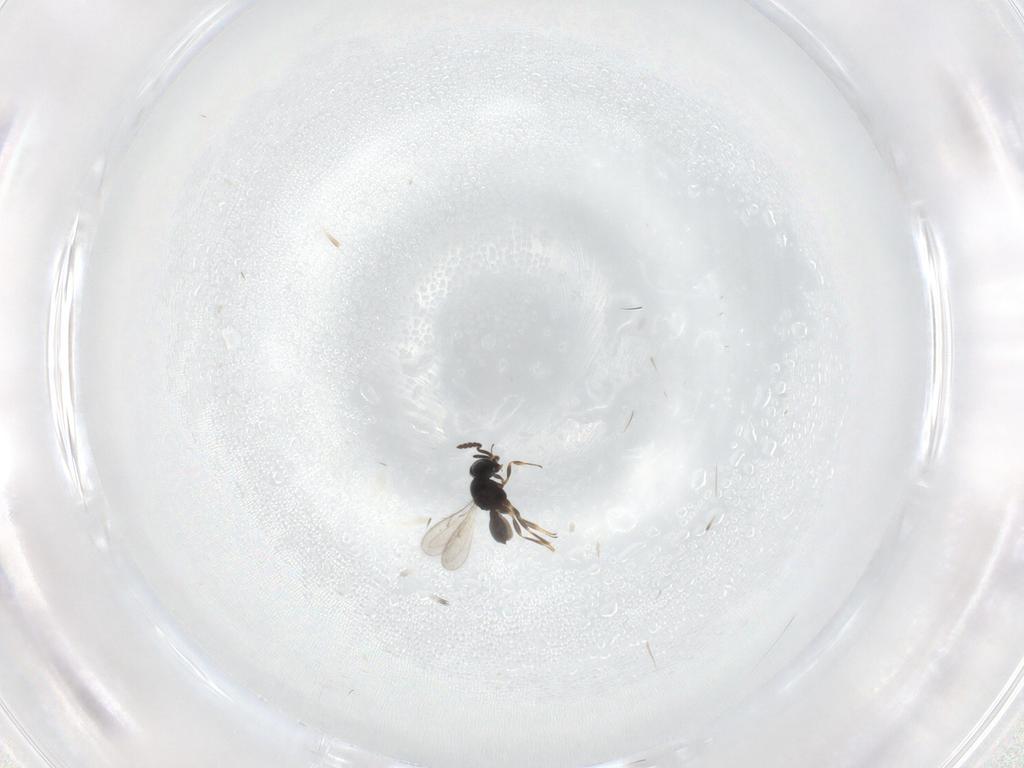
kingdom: Animalia
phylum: Arthropoda
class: Insecta
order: Hymenoptera
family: Scelionidae
